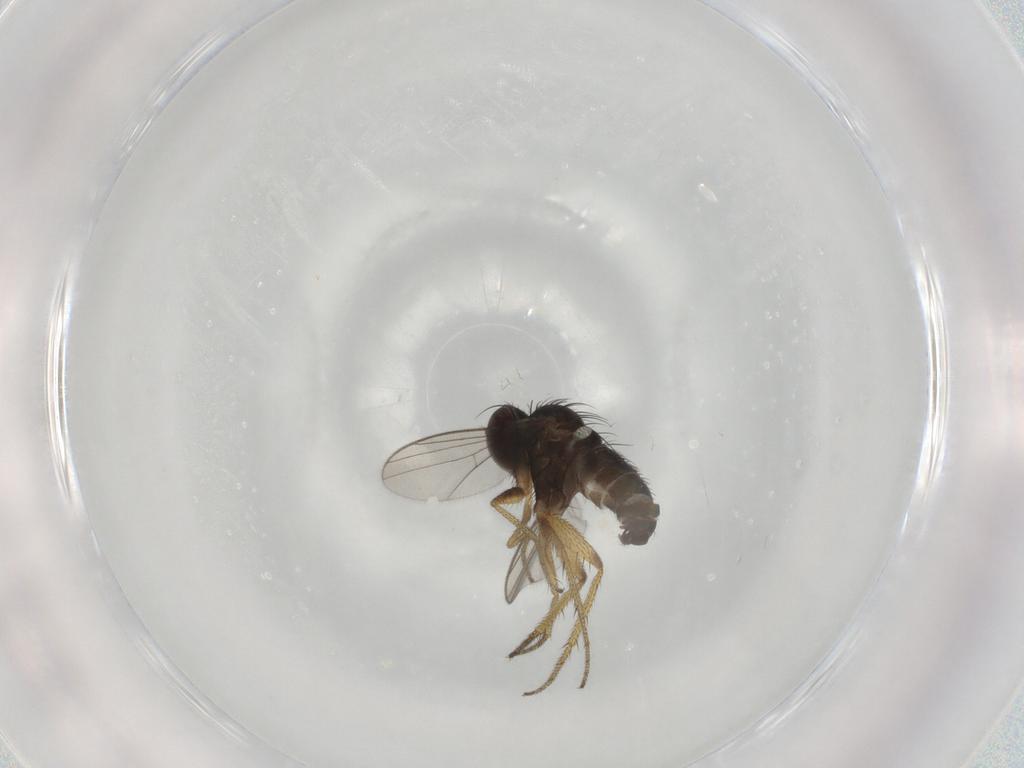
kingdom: Animalia
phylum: Arthropoda
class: Insecta
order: Diptera
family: Dolichopodidae
